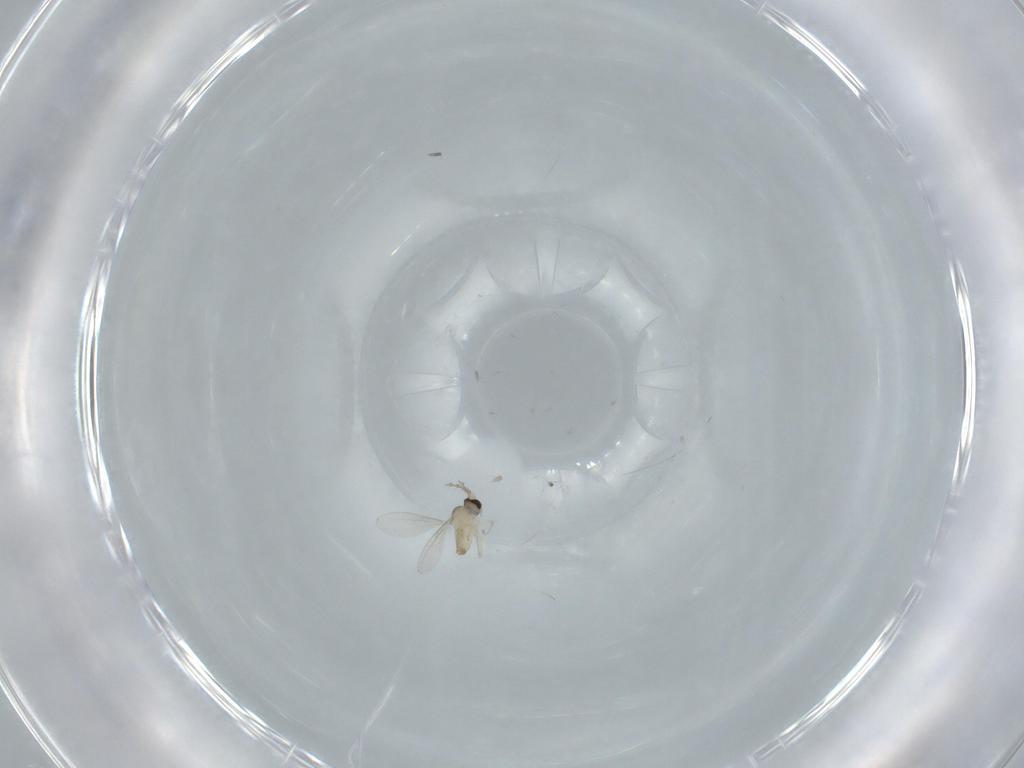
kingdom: Animalia
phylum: Arthropoda
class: Insecta
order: Diptera
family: Cecidomyiidae
